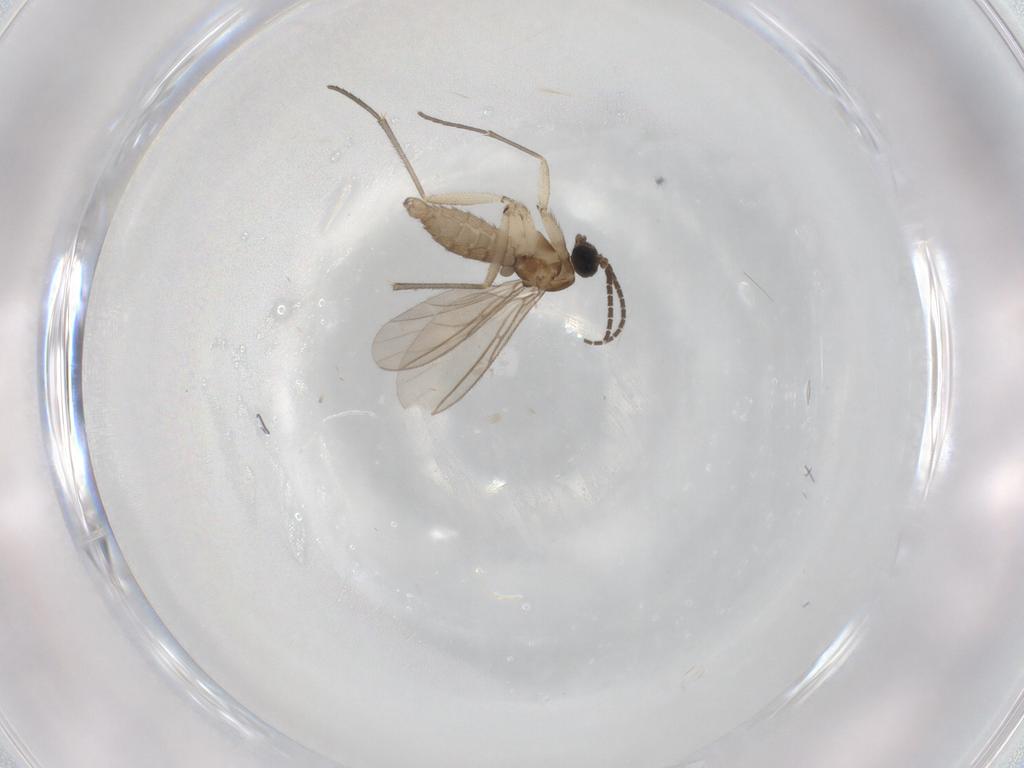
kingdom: Animalia
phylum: Arthropoda
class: Insecta
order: Diptera
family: Sciaridae
